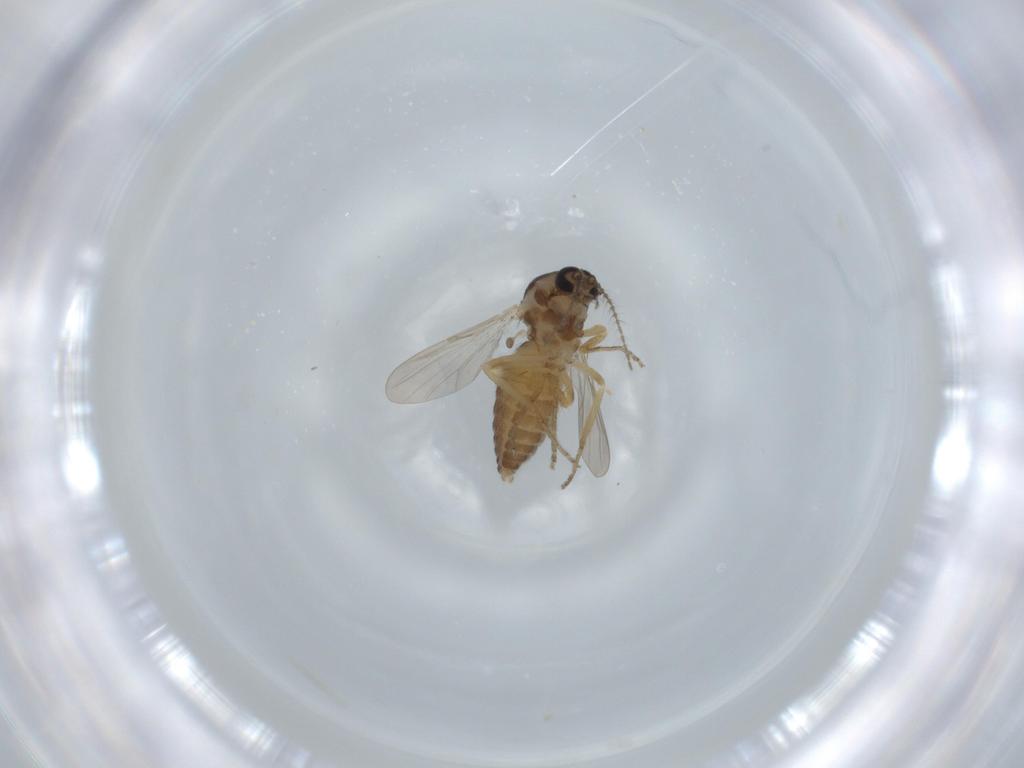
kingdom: Animalia
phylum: Arthropoda
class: Insecta
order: Diptera
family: Ceratopogonidae
